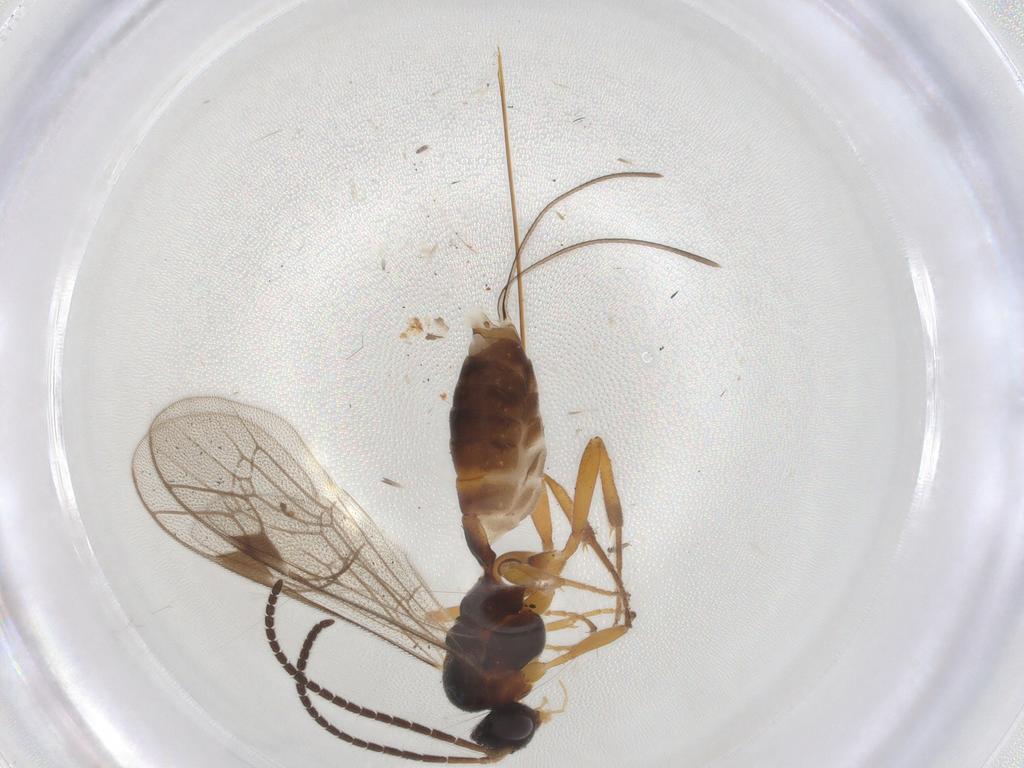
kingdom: Animalia
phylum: Arthropoda
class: Insecta
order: Hymenoptera
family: Ichneumonidae
